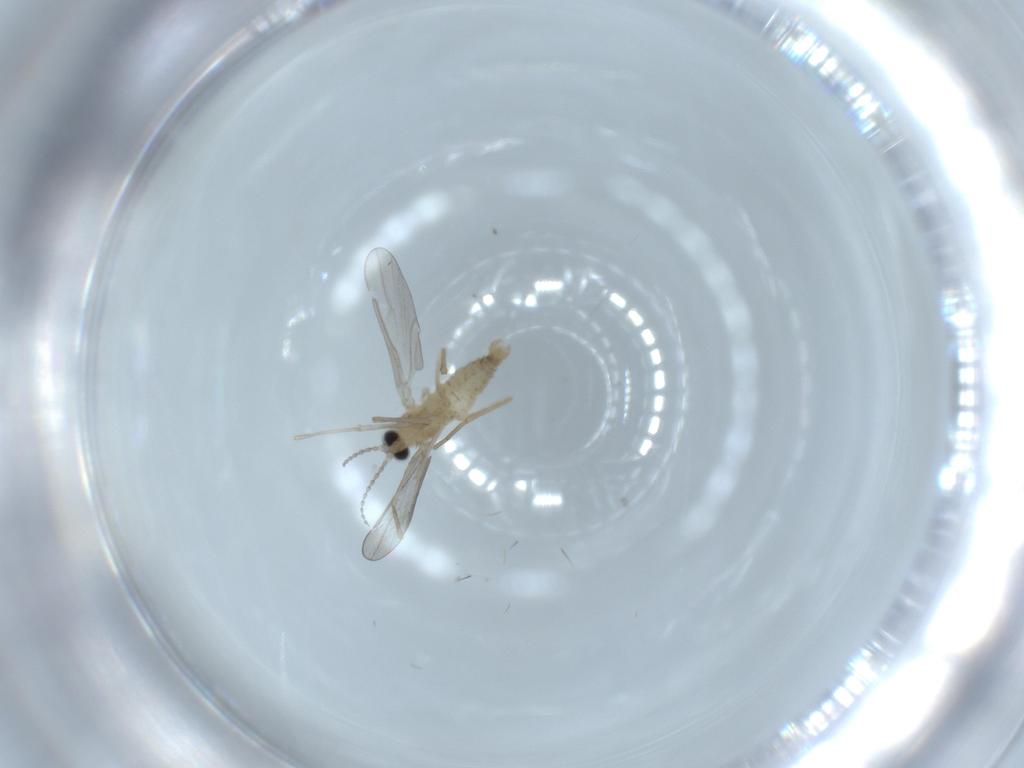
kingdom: Animalia
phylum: Arthropoda
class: Insecta
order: Diptera
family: Cecidomyiidae
